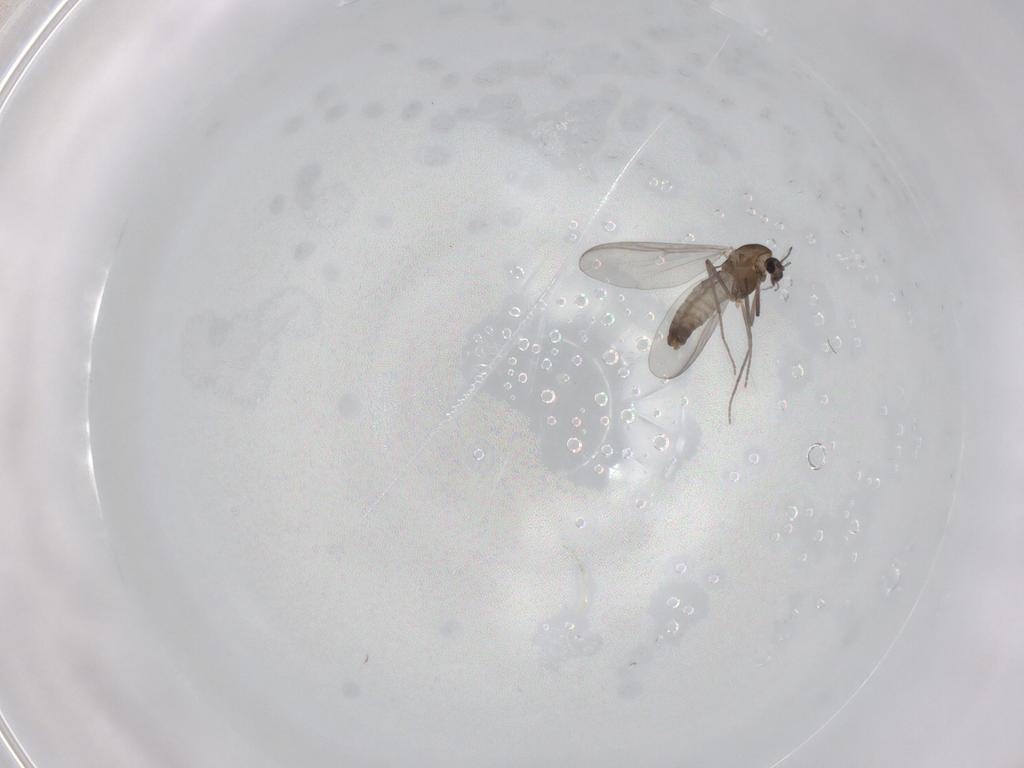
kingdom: Animalia
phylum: Arthropoda
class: Insecta
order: Diptera
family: Chironomidae
